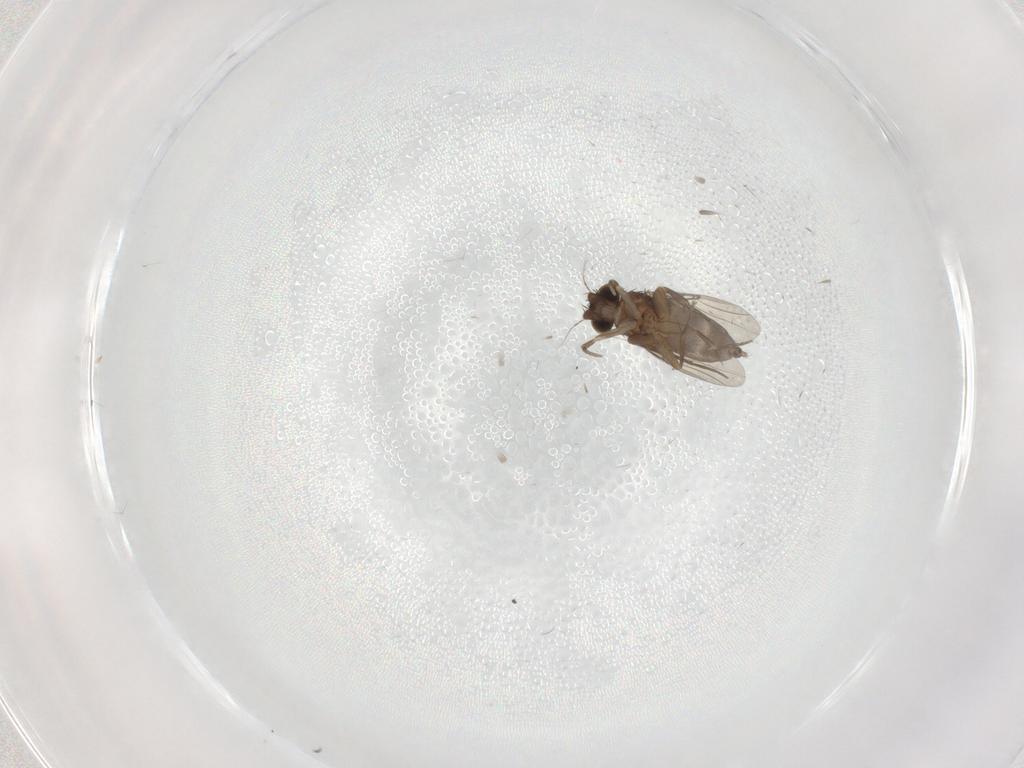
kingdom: Animalia
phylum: Arthropoda
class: Insecta
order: Diptera
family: Phoridae
